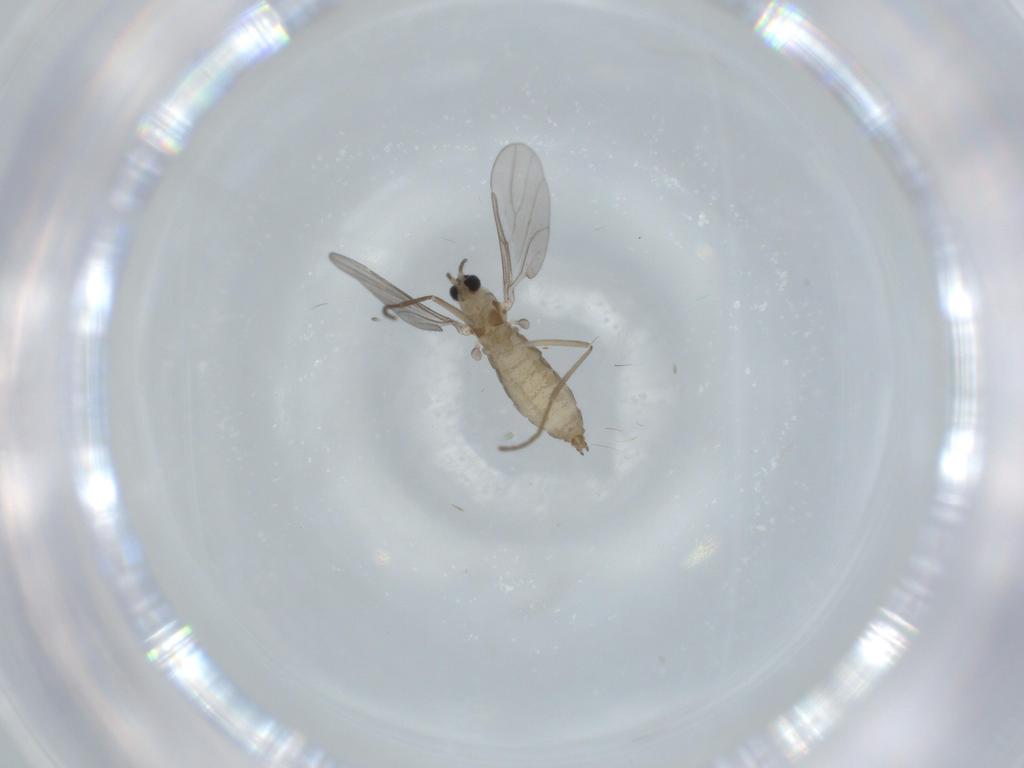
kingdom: Animalia
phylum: Arthropoda
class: Insecta
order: Diptera
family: Cecidomyiidae
